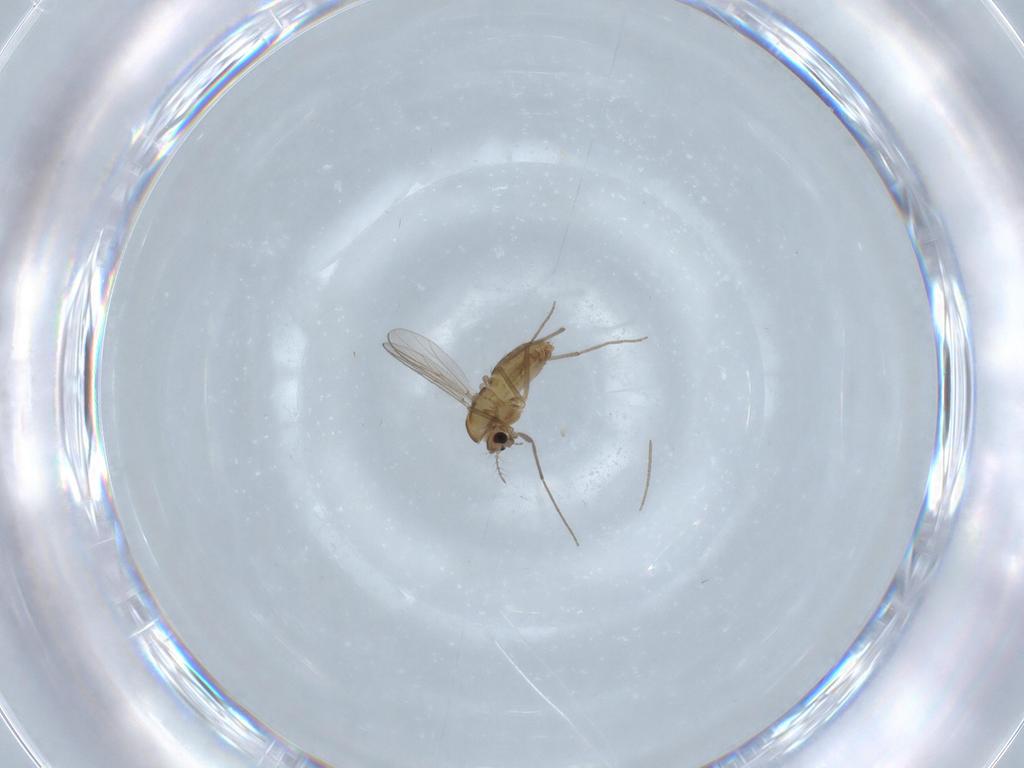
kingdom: Animalia
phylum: Arthropoda
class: Insecta
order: Diptera
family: Chironomidae
